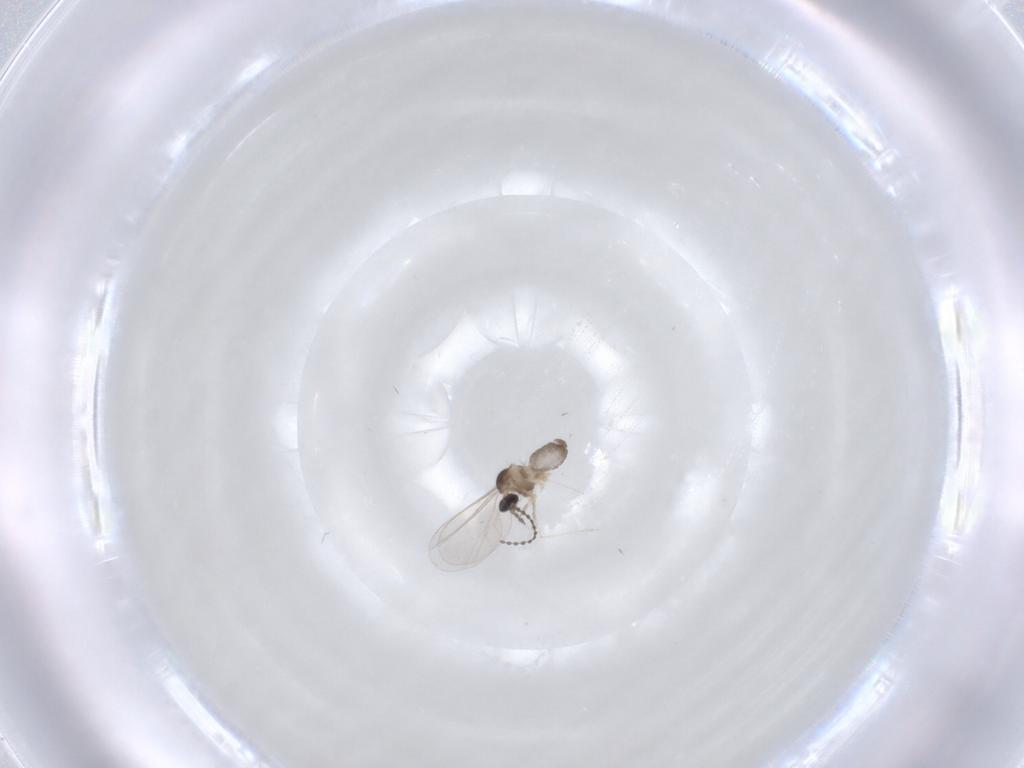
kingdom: Animalia
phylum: Arthropoda
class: Insecta
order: Diptera
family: Cecidomyiidae
